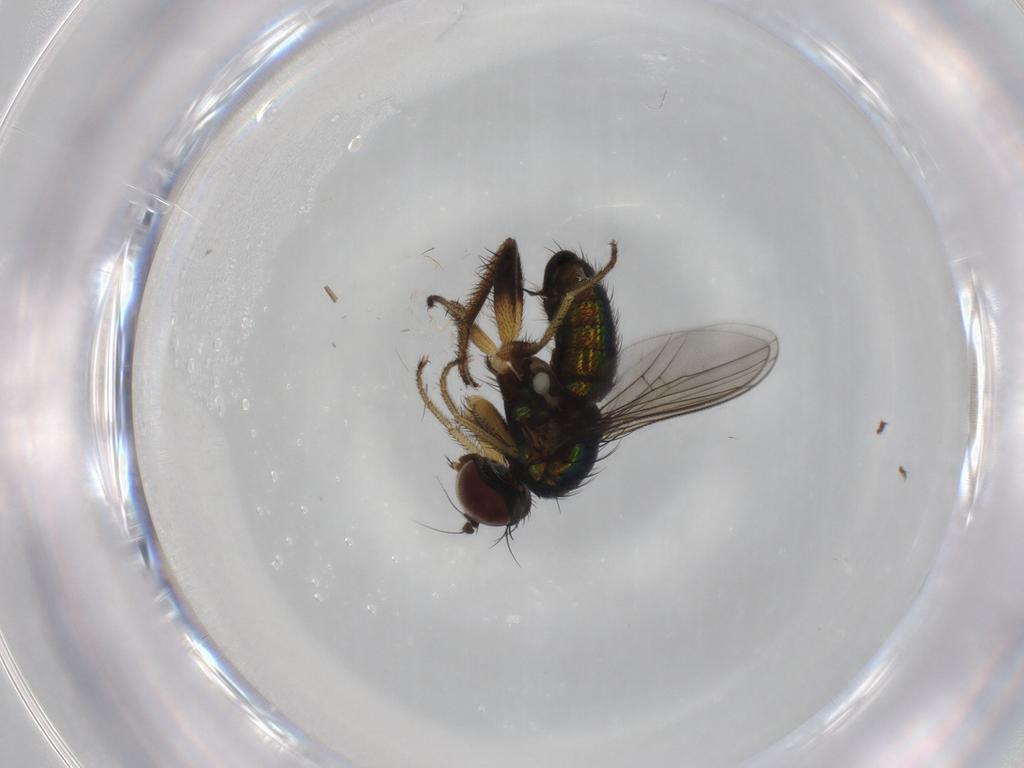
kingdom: Animalia
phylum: Arthropoda
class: Insecta
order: Diptera
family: Dolichopodidae
